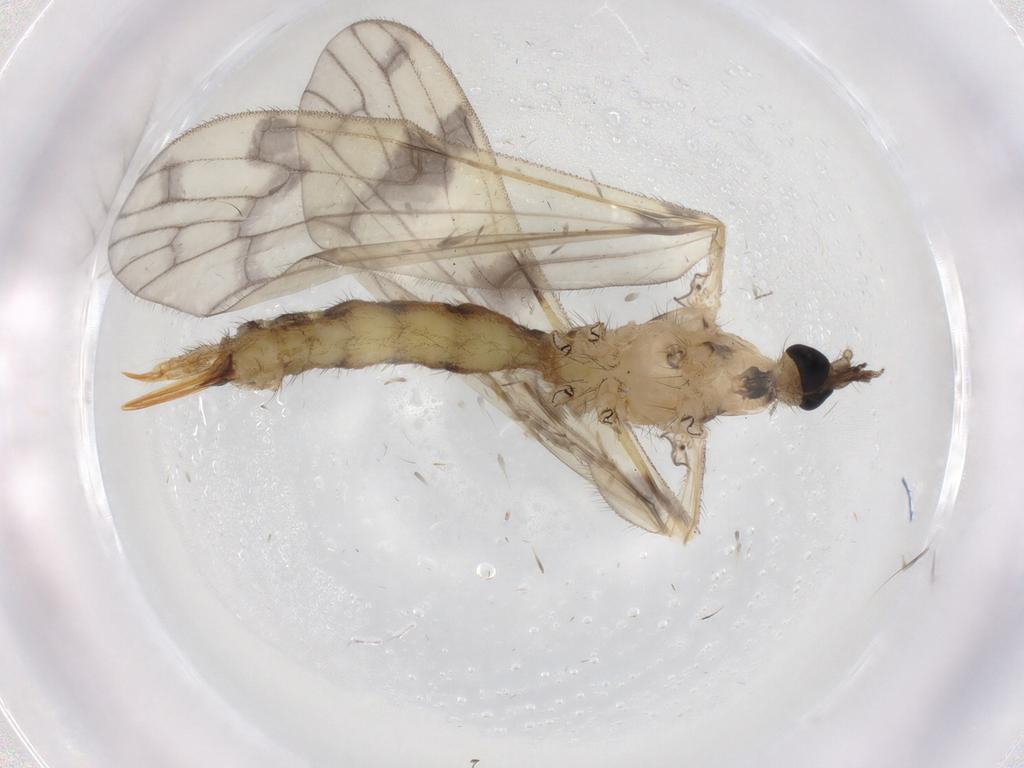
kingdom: Animalia
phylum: Arthropoda
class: Insecta
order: Diptera
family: Limoniidae
